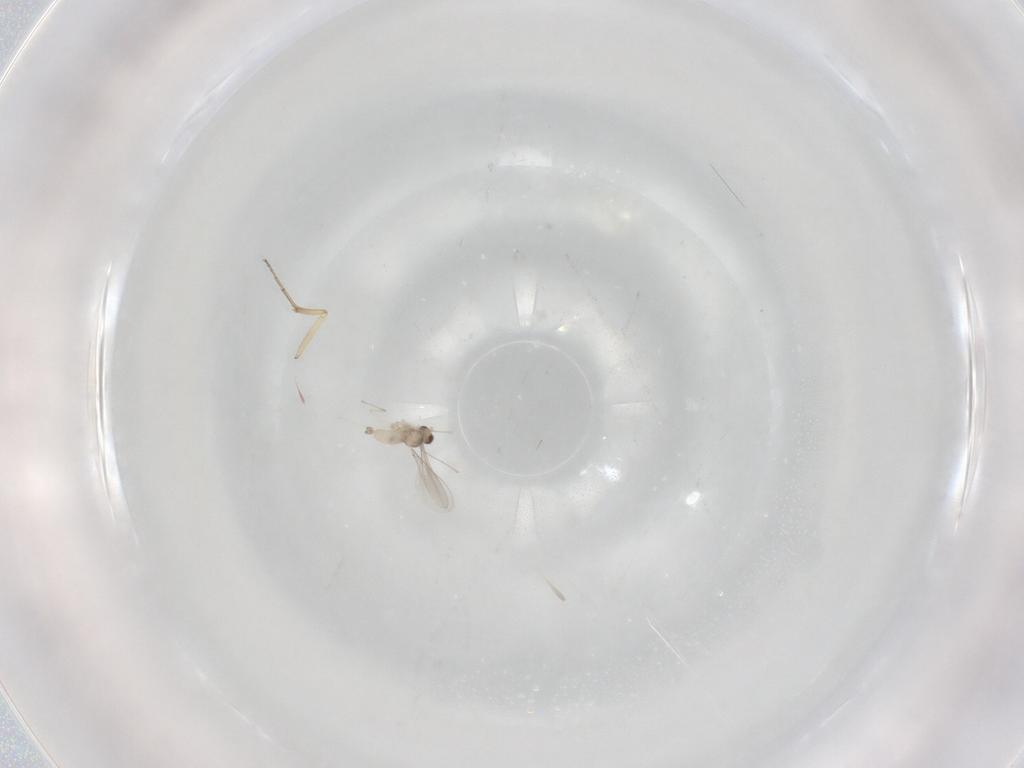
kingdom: Animalia
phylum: Arthropoda
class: Insecta
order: Diptera
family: Cecidomyiidae
